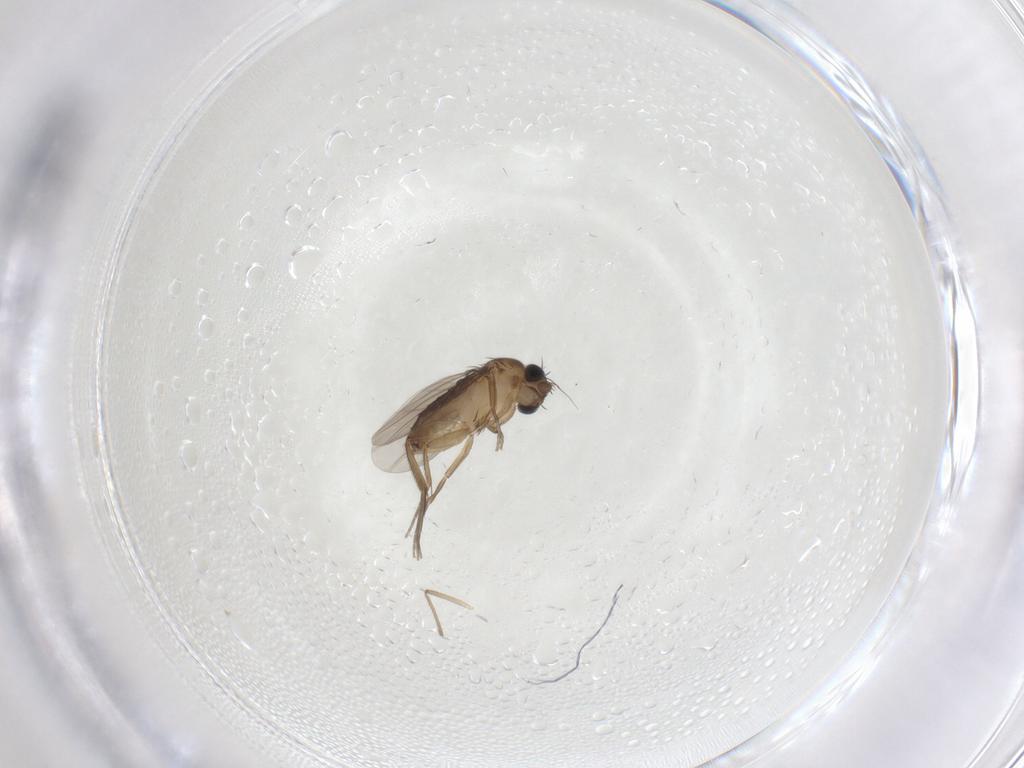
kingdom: Animalia
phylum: Arthropoda
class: Insecta
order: Diptera
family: Phoridae
